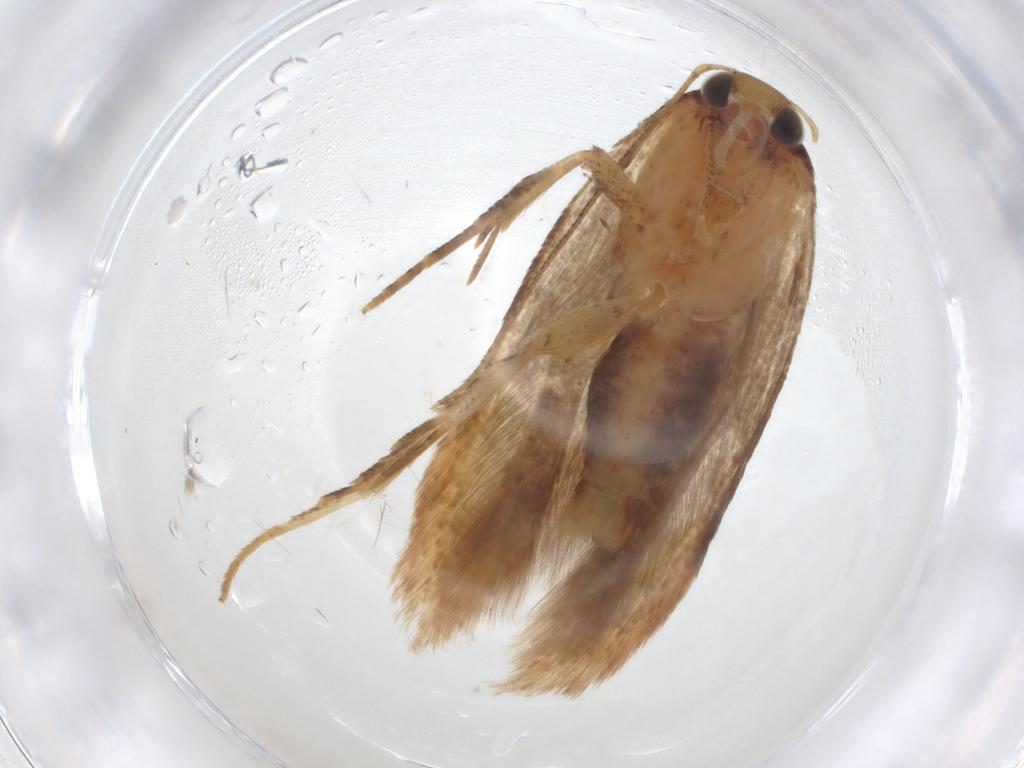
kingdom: Animalia
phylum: Arthropoda
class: Insecta
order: Lepidoptera
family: Gelechiidae
